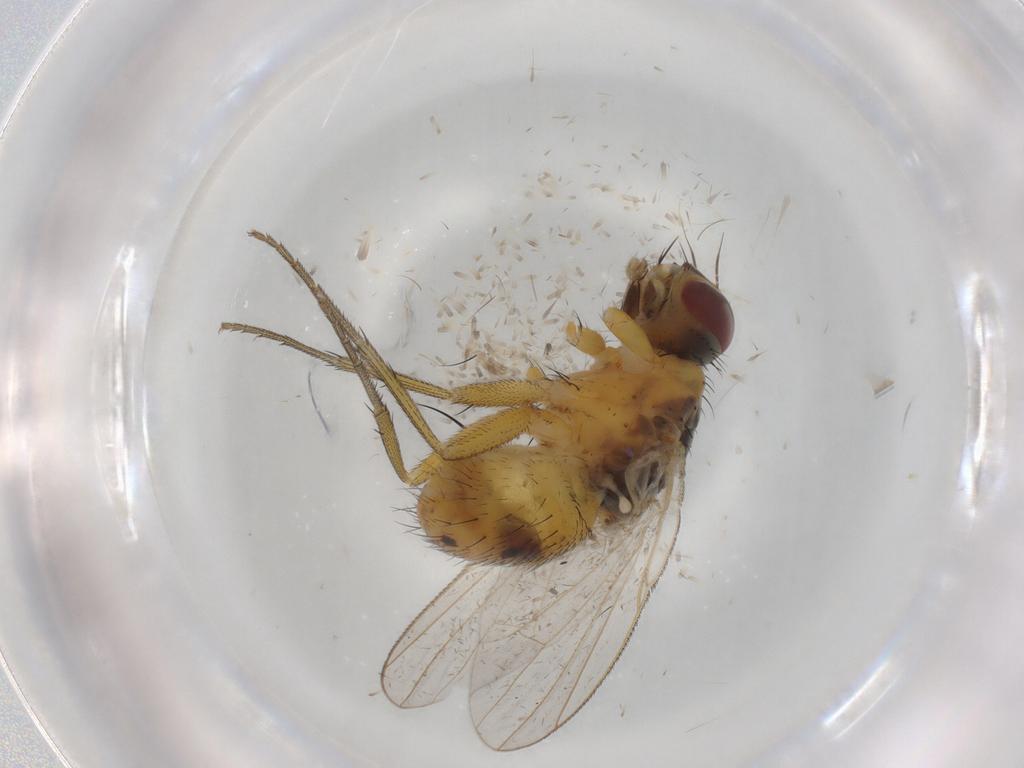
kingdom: Animalia
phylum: Arthropoda
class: Insecta
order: Diptera
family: Muscidae
